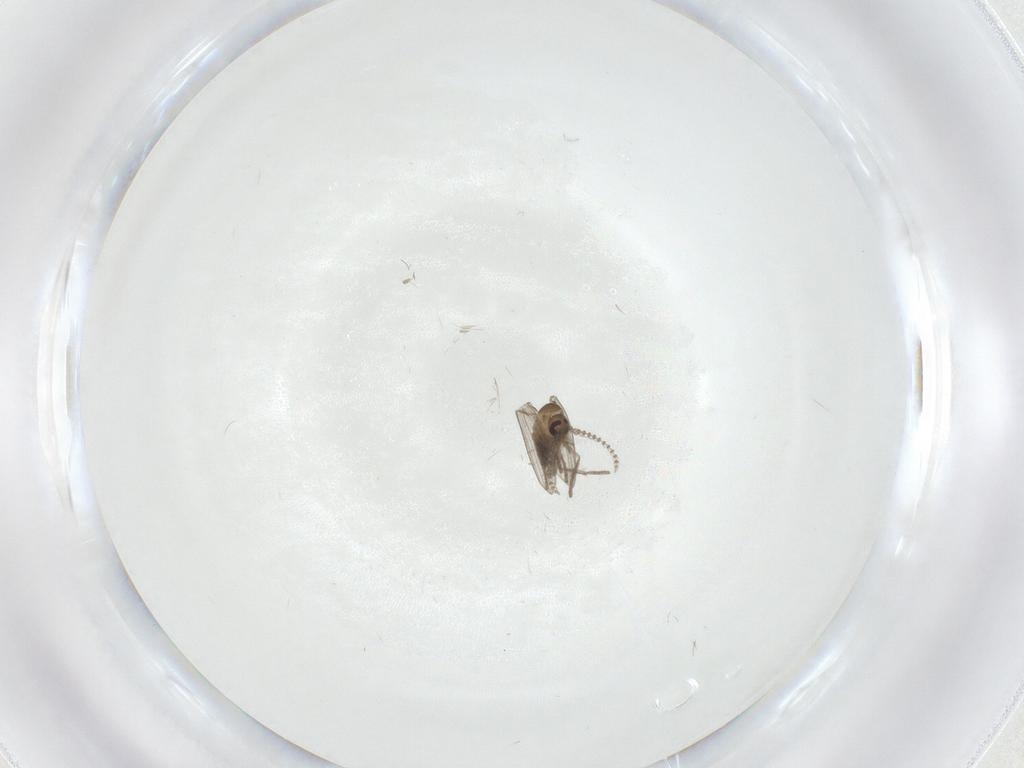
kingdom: Animalia
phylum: Arthropoda
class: Insecta
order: Diptera
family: Psychodidae
